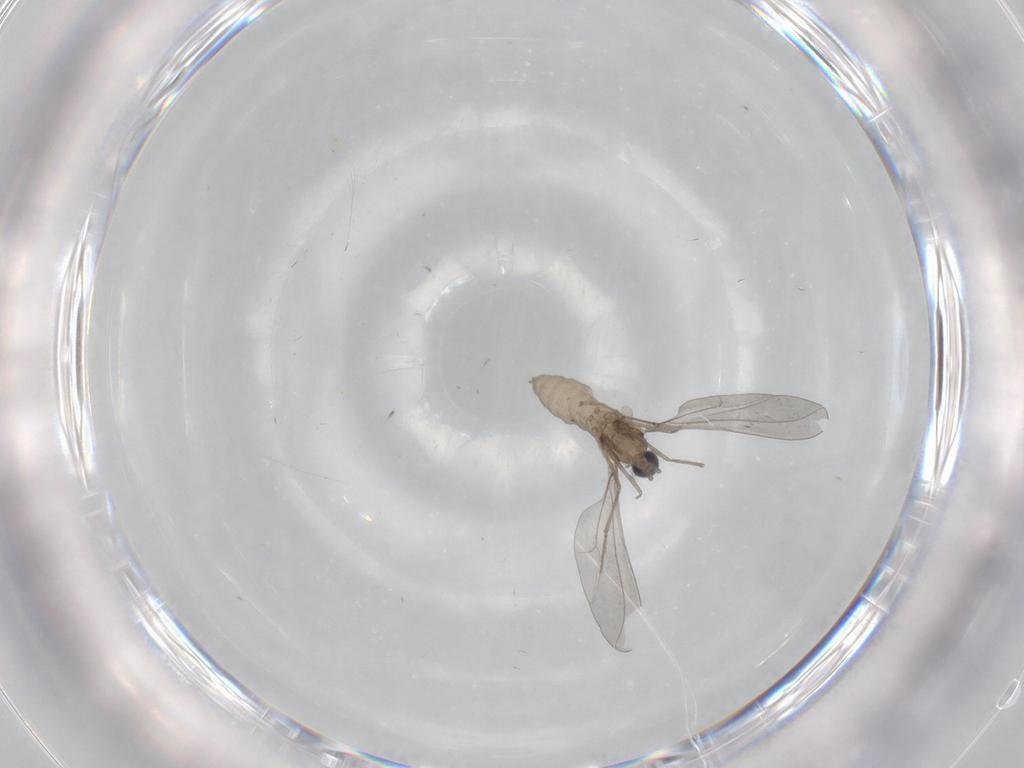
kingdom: Animalia
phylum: Arthropoda
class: Insecta
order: Diptera
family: Cecidomyiidae
